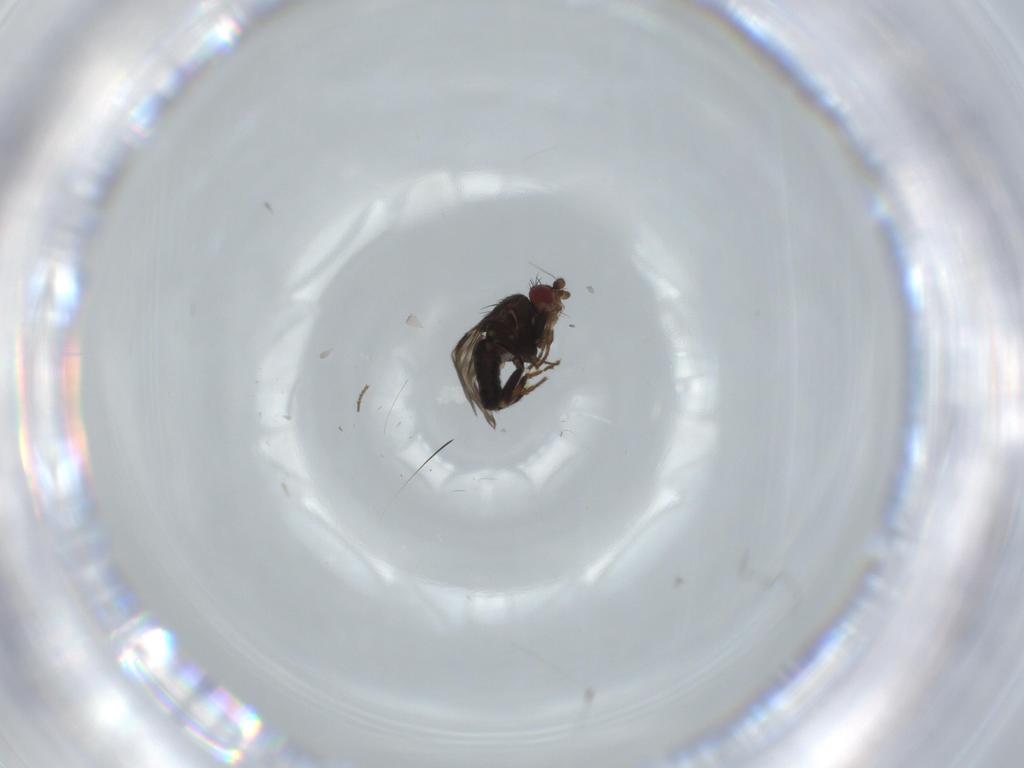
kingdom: Animalia
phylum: Arthropoda
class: Insecta
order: Diptera
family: Sphaeroceridae
